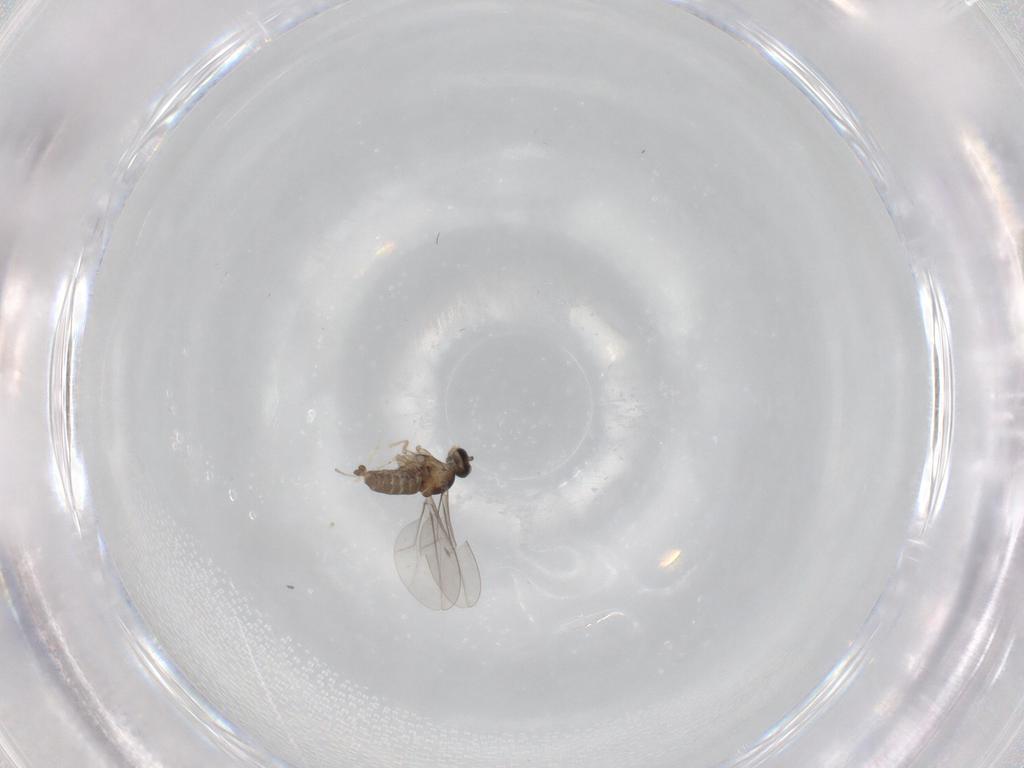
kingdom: Animalia
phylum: Arthropoda
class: Insecta
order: Diptera
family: Cecidomyiidae
